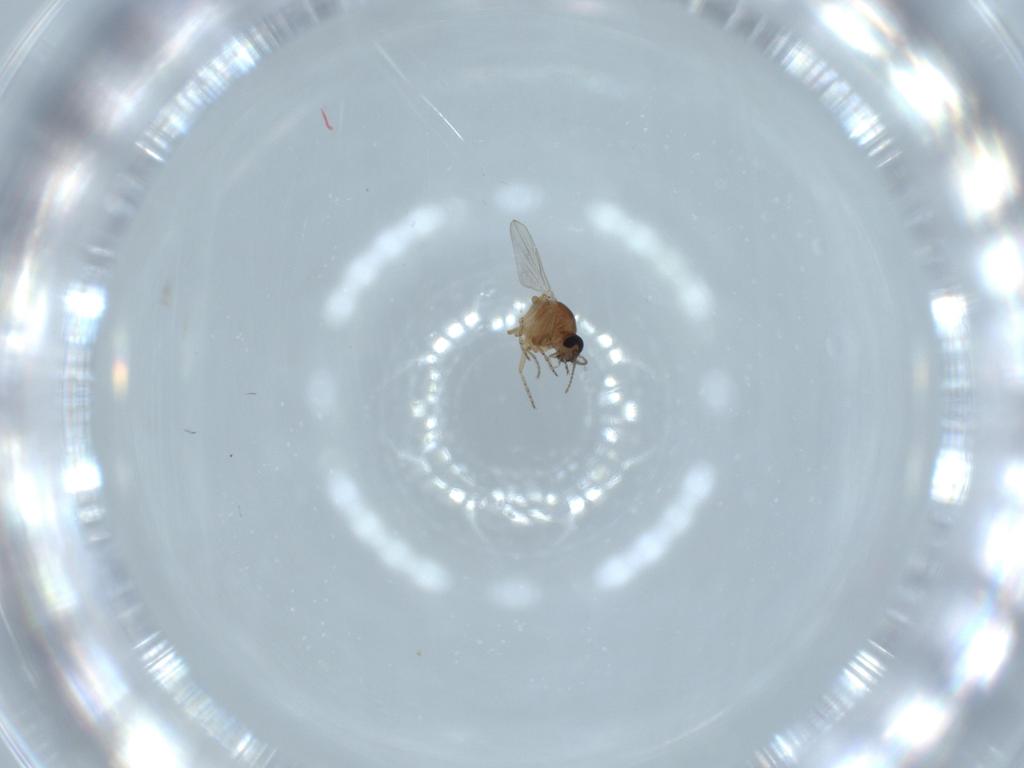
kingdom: Animalia
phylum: Arthropoda
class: Insecta
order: Diptera
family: Ceratopogonidae
